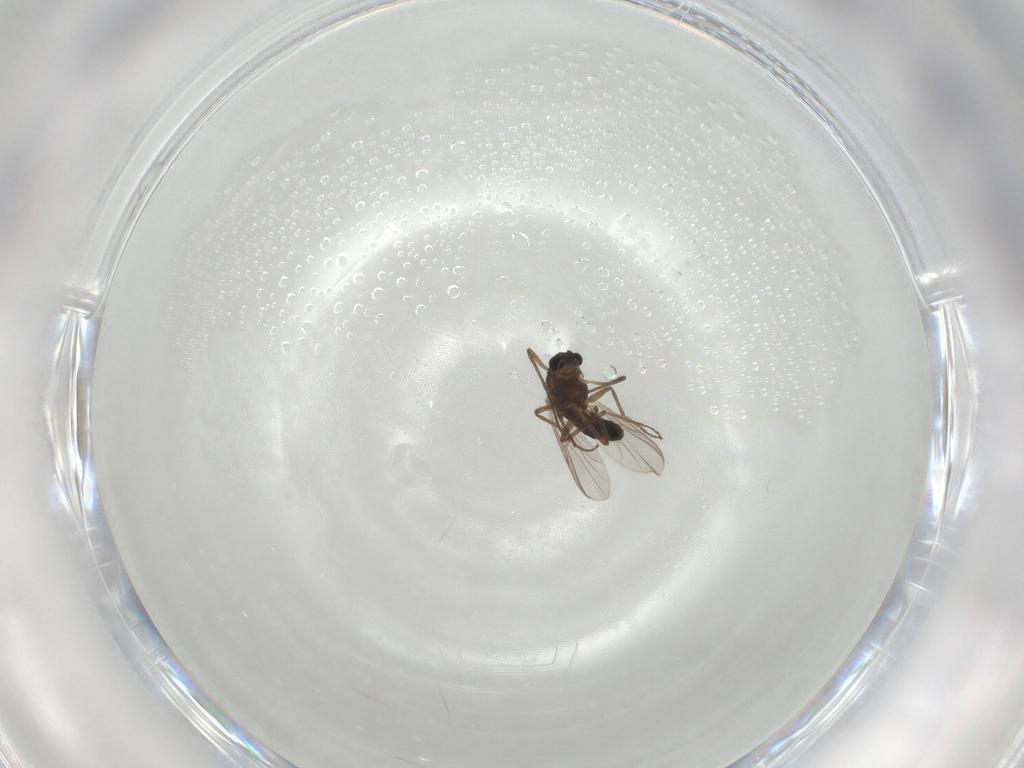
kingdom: Animalia
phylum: Arthropoda
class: Insecta
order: Diptera
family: Chironomidae
